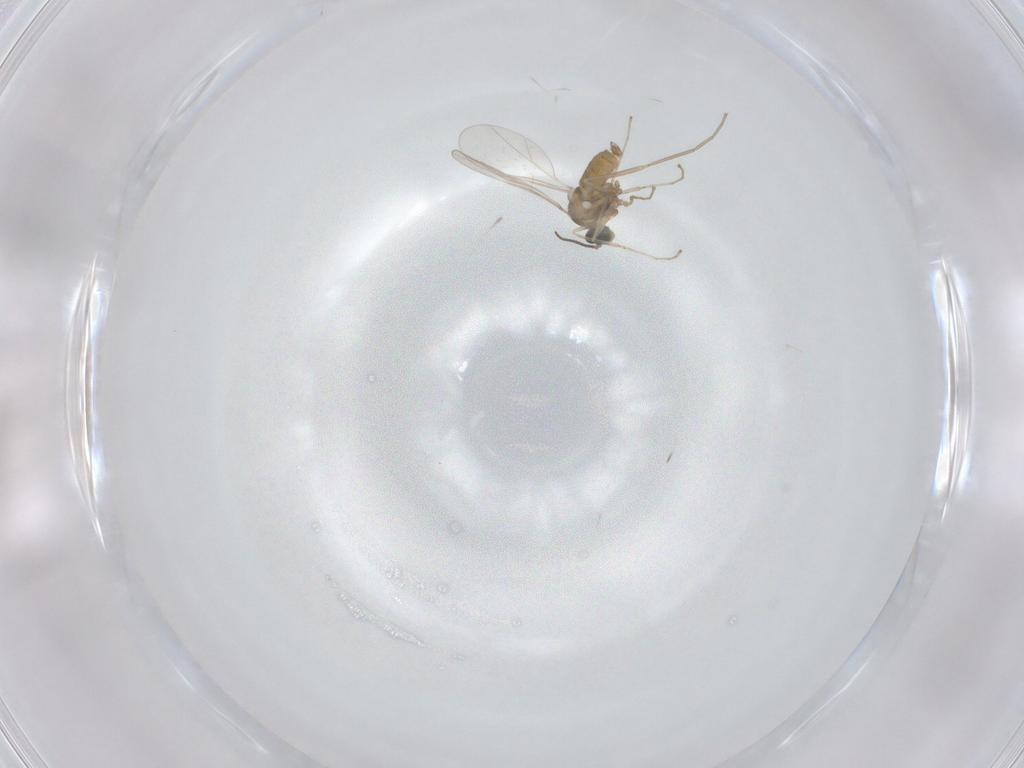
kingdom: Animalia
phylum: Arthropoda
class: Insecta
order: Diptera
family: Cecidomyiidae
